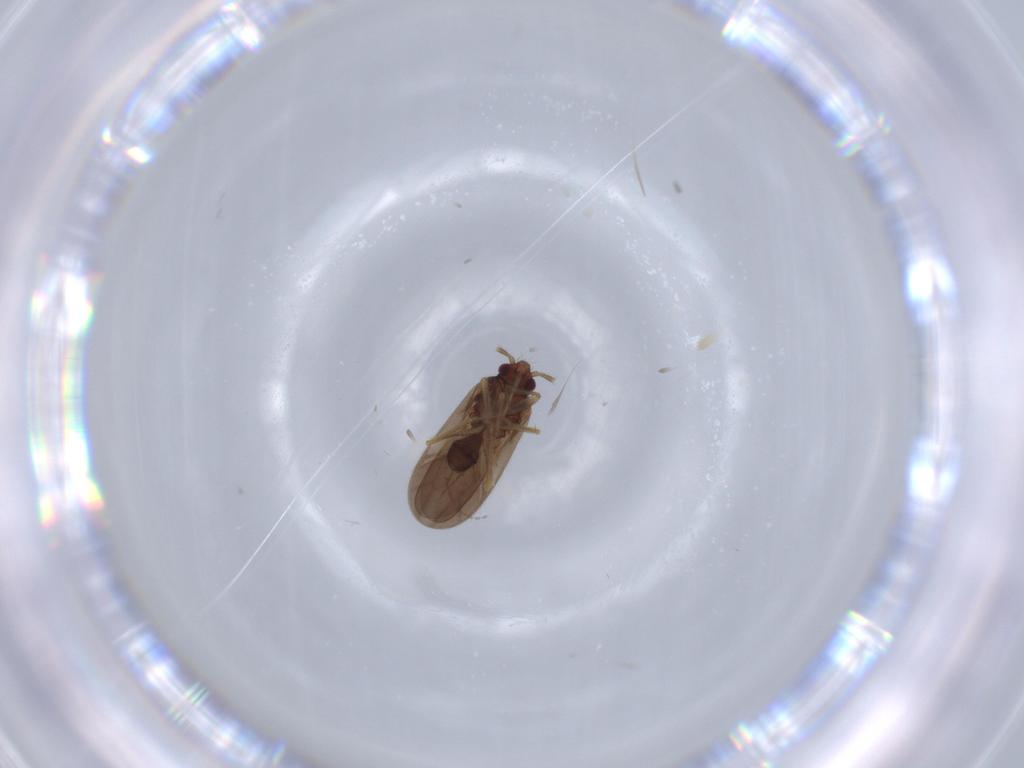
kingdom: Animalia
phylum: Arthropoda
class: Insecta
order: Hemiptera
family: Ceratocombidae
